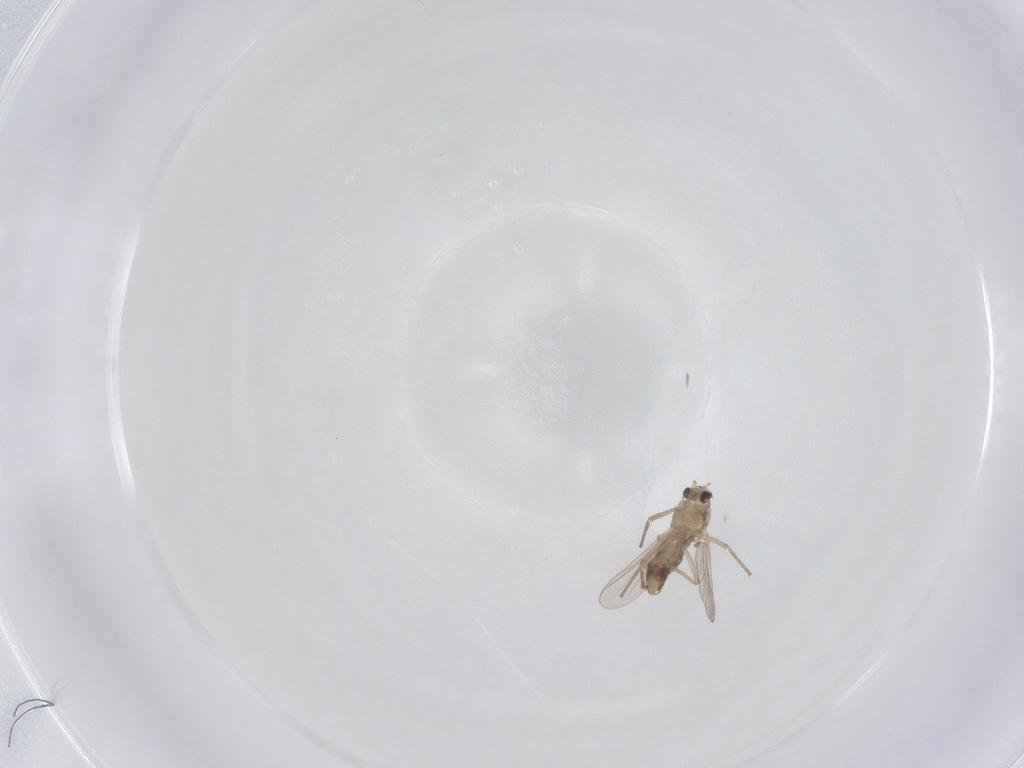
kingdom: Animalia
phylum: Arthropoda
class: Insecta
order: Diptera
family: Chironomidae
